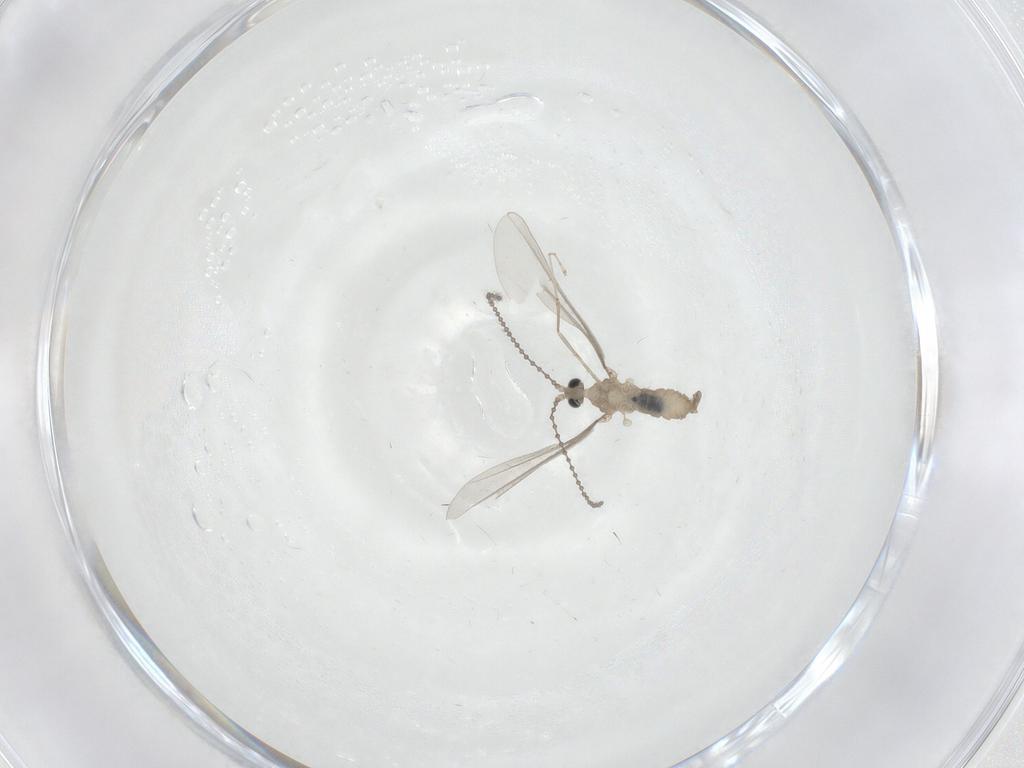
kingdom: Animalia
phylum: Arthropoda
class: Insecta
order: Diptera
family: Cecidomyiidae
